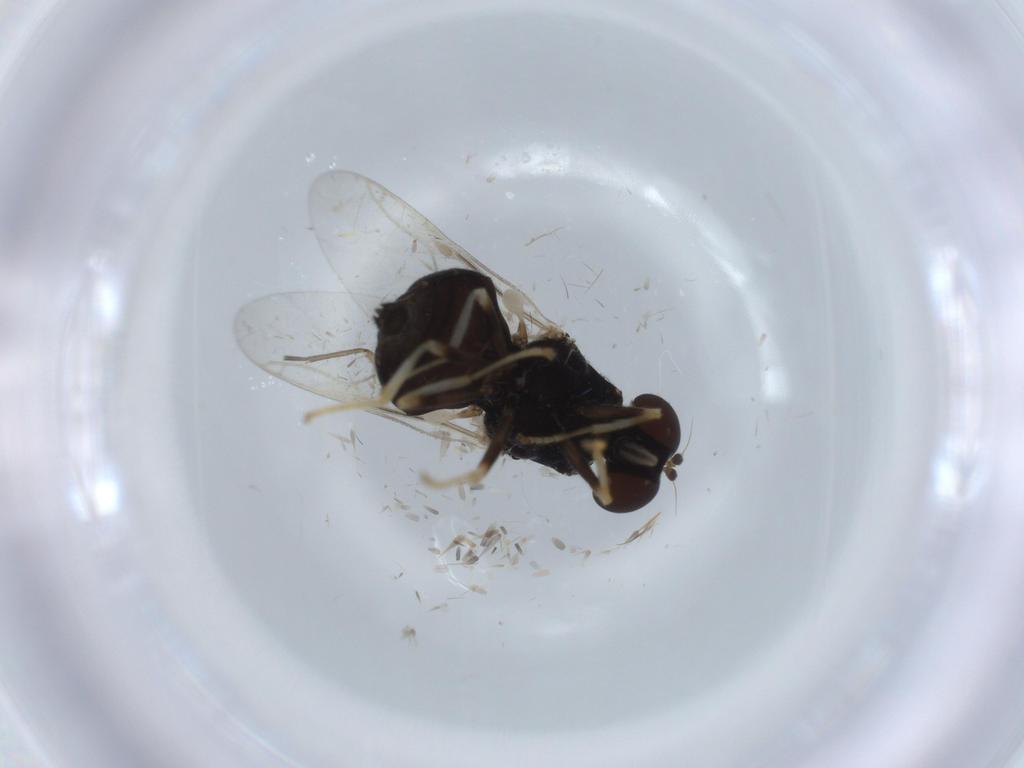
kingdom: Animalia
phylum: Arthropoda
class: Insecta
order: Diptera
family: Stratiomyidae
